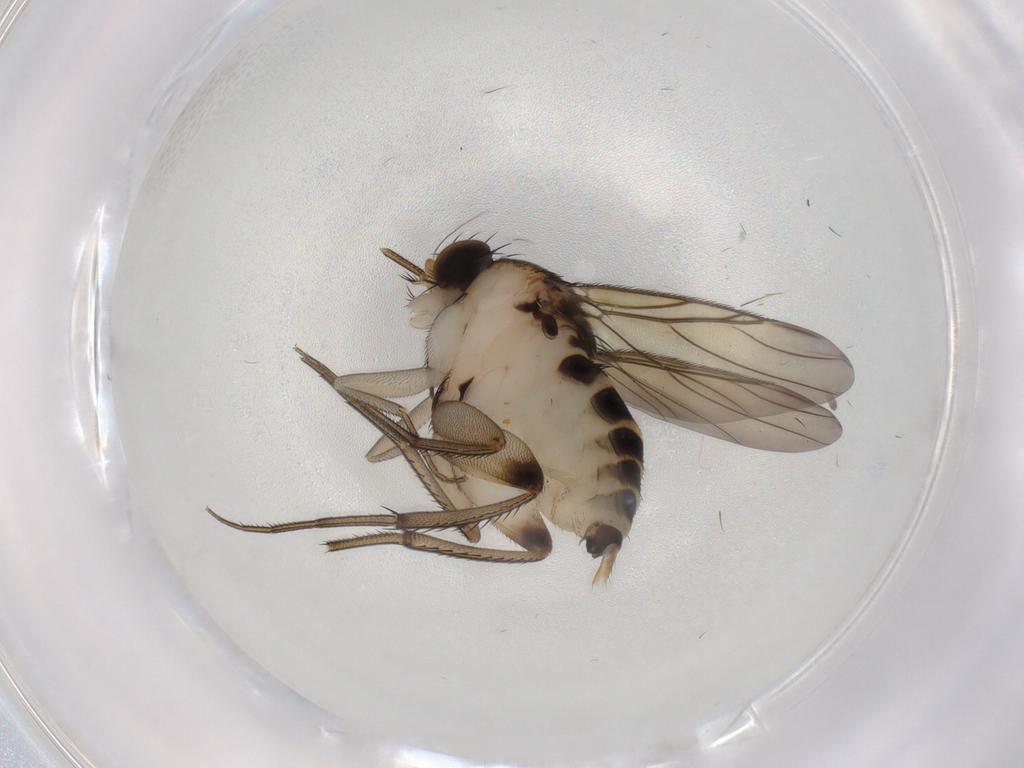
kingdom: Animalia
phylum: Arthropoda
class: Insecta
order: Diptera
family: Phoridae
